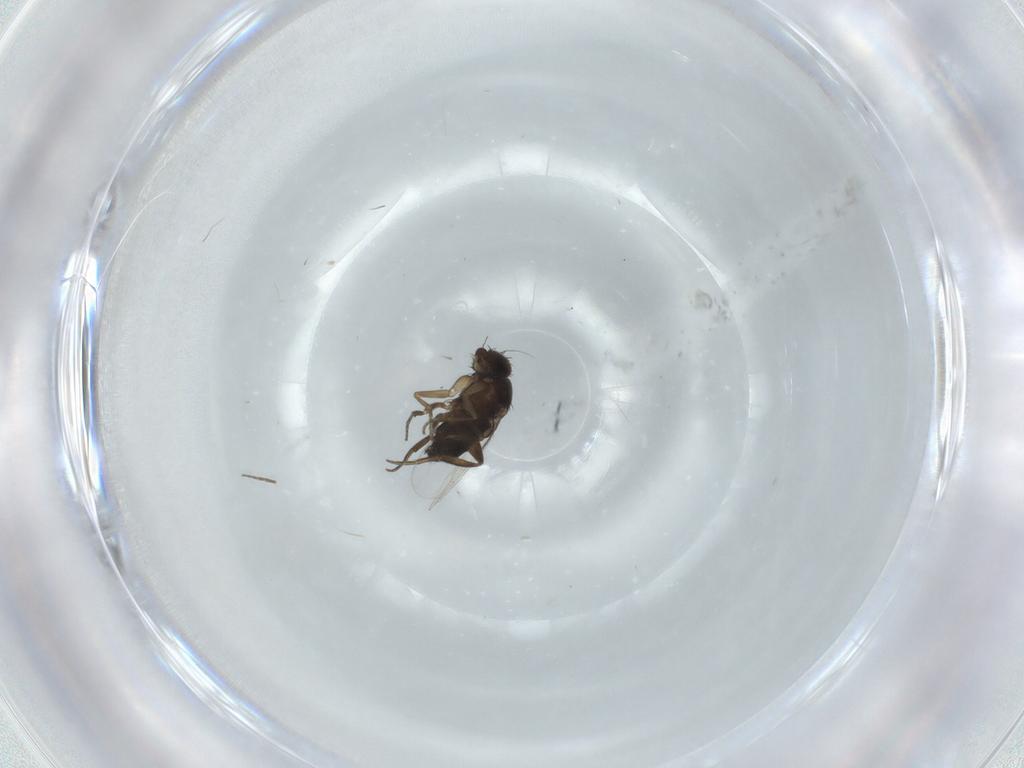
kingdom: Animalia
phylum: Arthropoda
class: Insecta
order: Diptera
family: Phoridae
